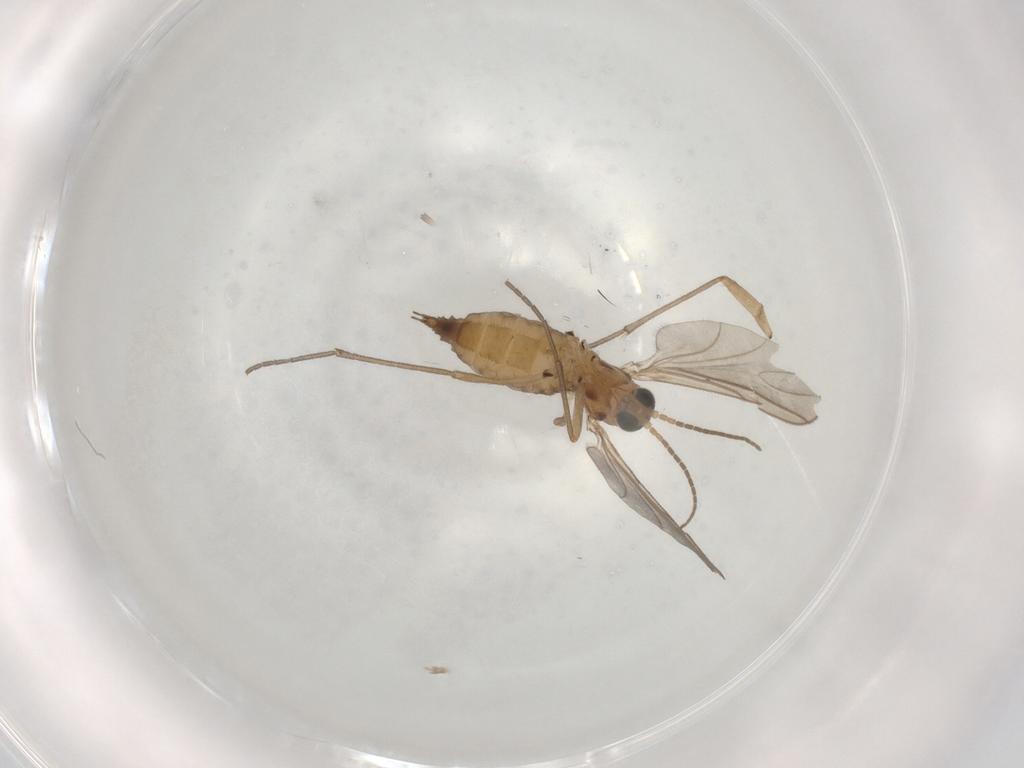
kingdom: Animalia
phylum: Arthropoda
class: Insecta
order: Diptera
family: Sciaridae
